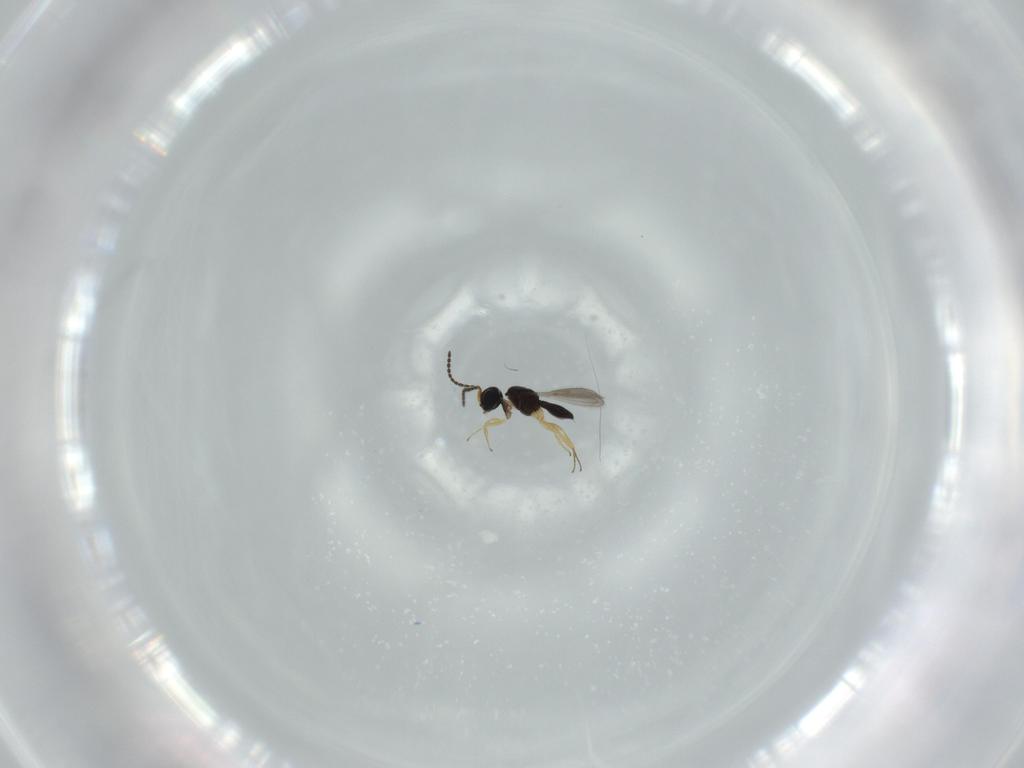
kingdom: Animalia
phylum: Arthropoda
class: Insecta
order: Hymenoptera
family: Scelionidae
